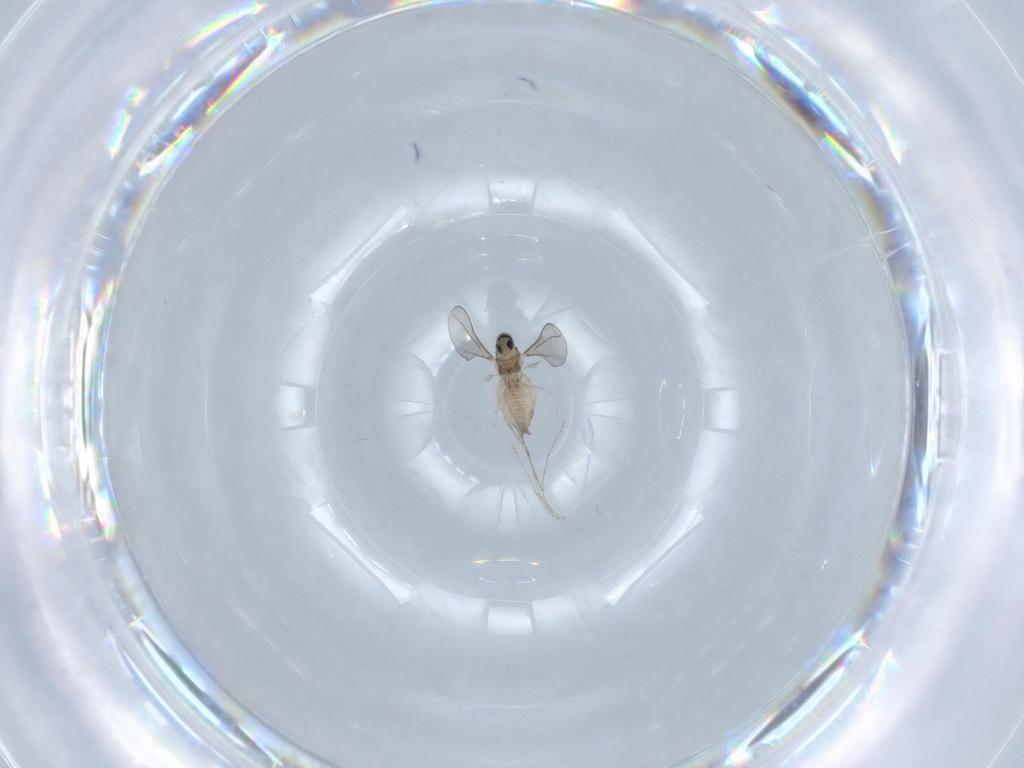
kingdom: Animalia
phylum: Arthropoda
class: Insecta
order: Diptera
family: Cecidomyiidae
